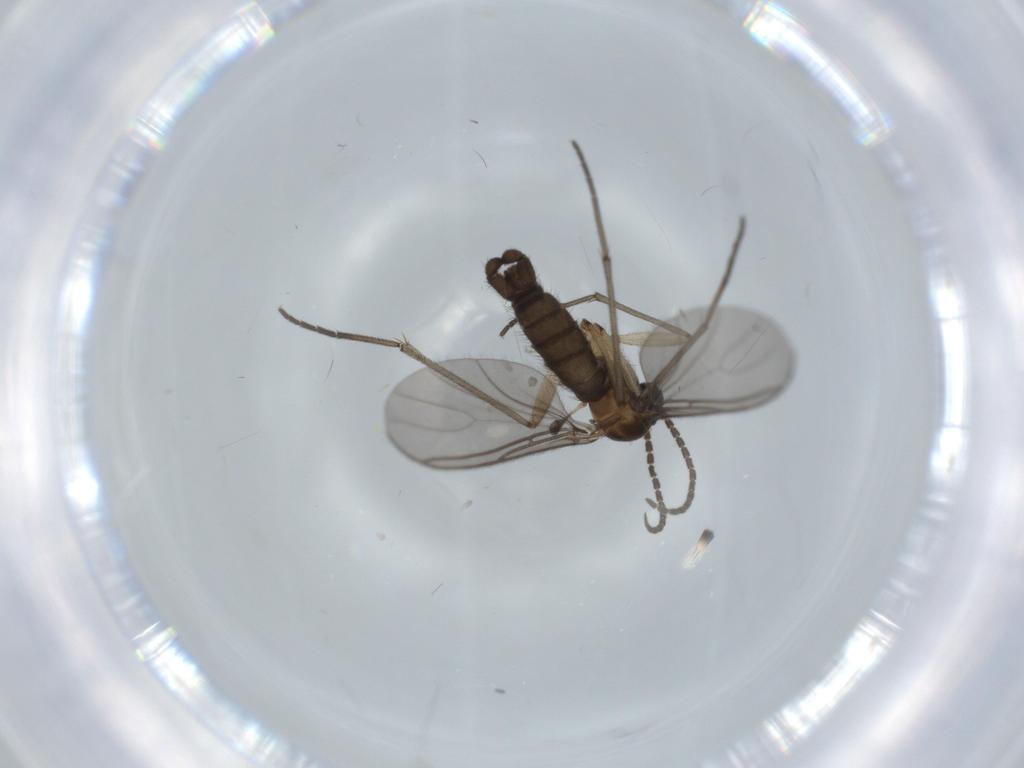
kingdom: Animalia
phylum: Arthropoda
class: Insecta
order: Diptera
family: Sciaridae
